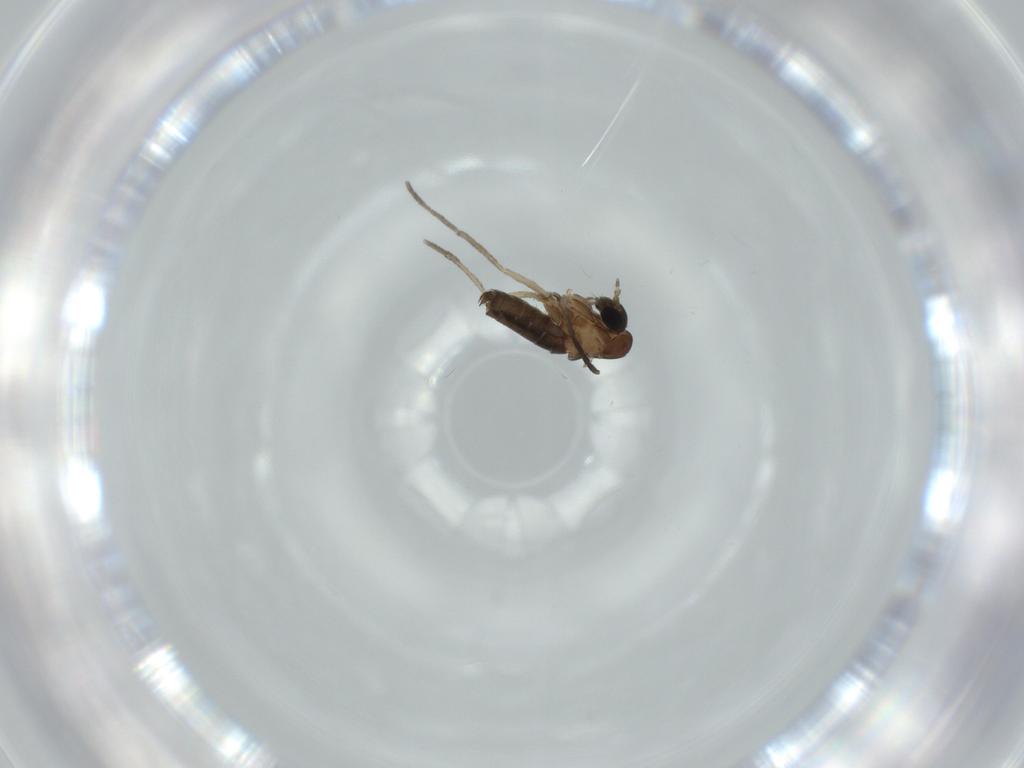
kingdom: Animalia
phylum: Arthropoda
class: Insecta
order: Diptera
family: Psychodidae
